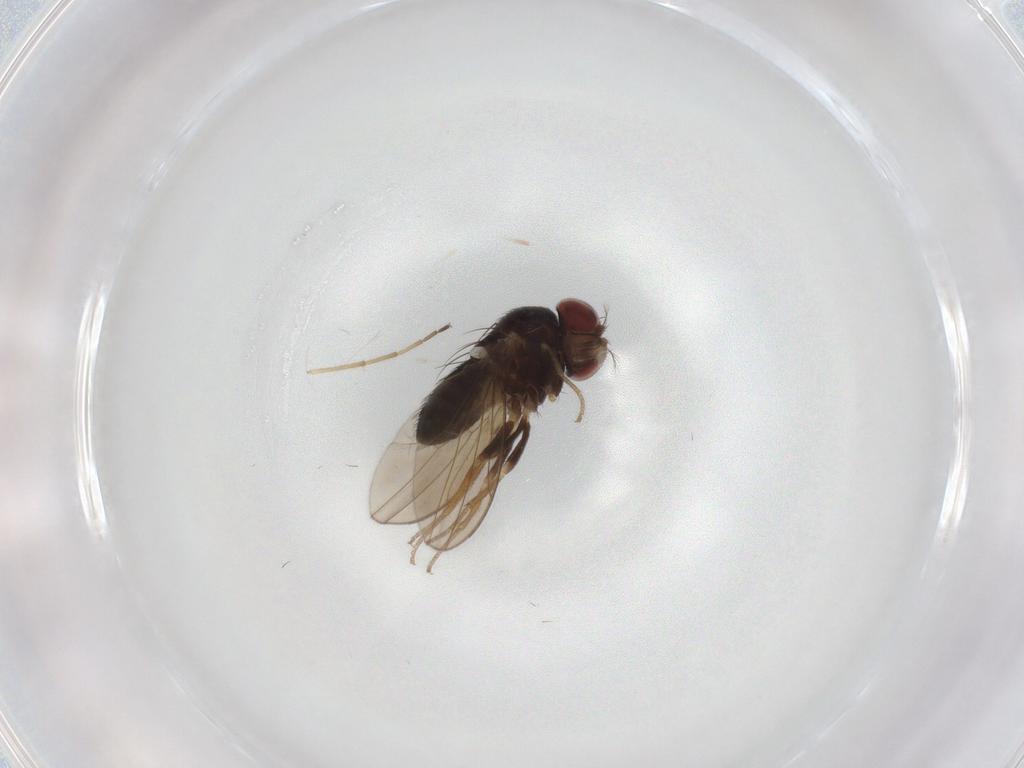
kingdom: Animalia
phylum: Arthropoda
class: Insecta
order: Diptera
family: Drosophilidae
